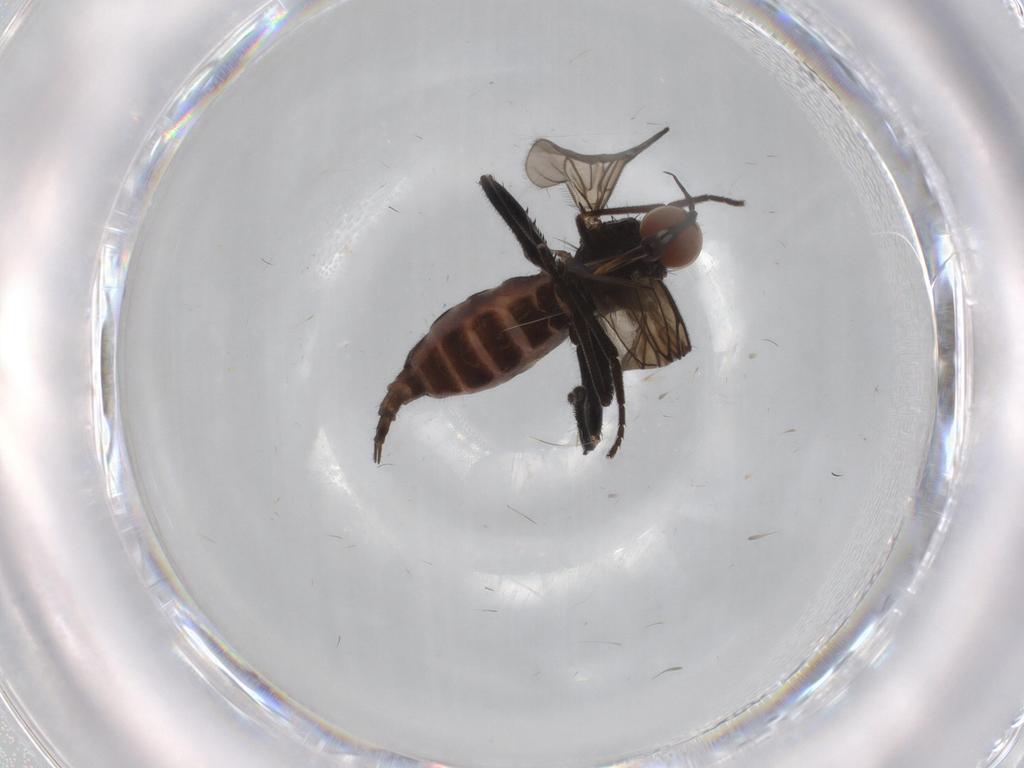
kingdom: Animalia
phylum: Arthropoda
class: Insecta
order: Diptera
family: Empididae
